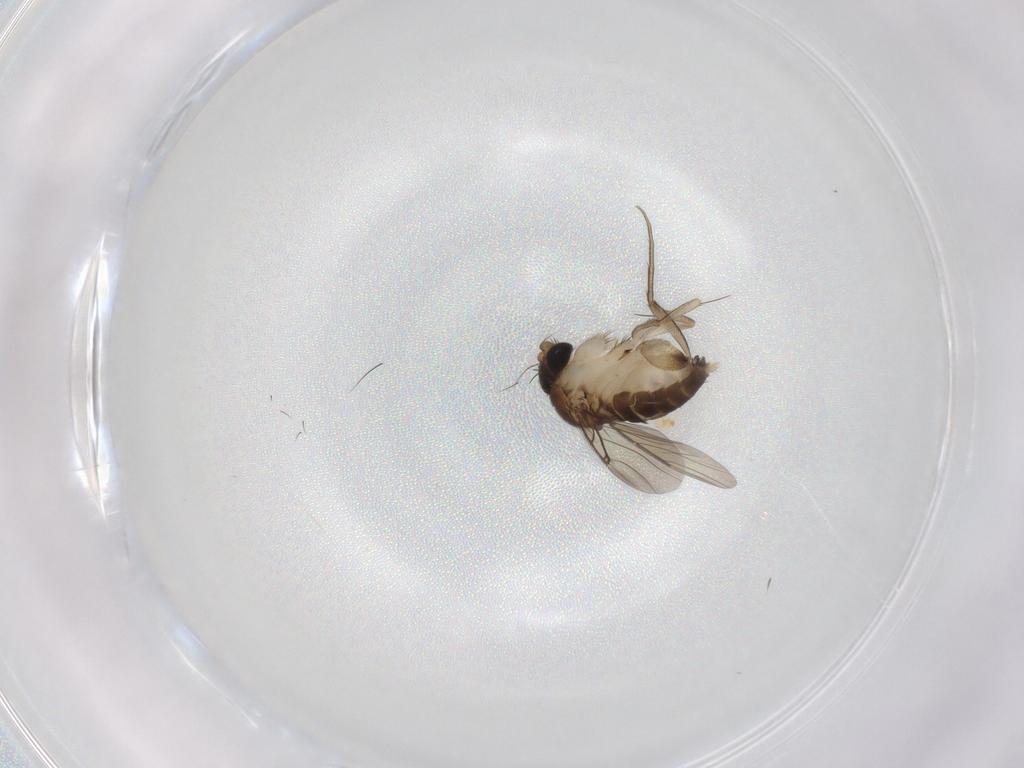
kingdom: Animalia
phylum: Arthropoda
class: Insecta
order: Diptera
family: Phoridae
